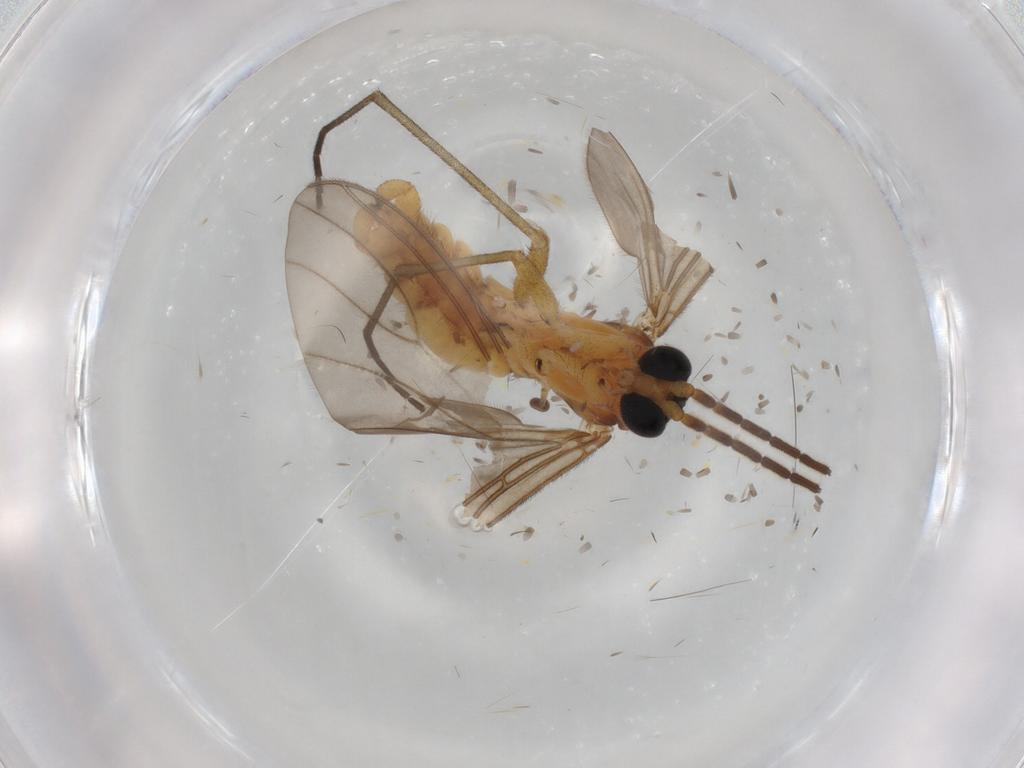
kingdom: Animalia
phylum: Arthropoda
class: Insecta
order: Diptera
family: Sciaridae
